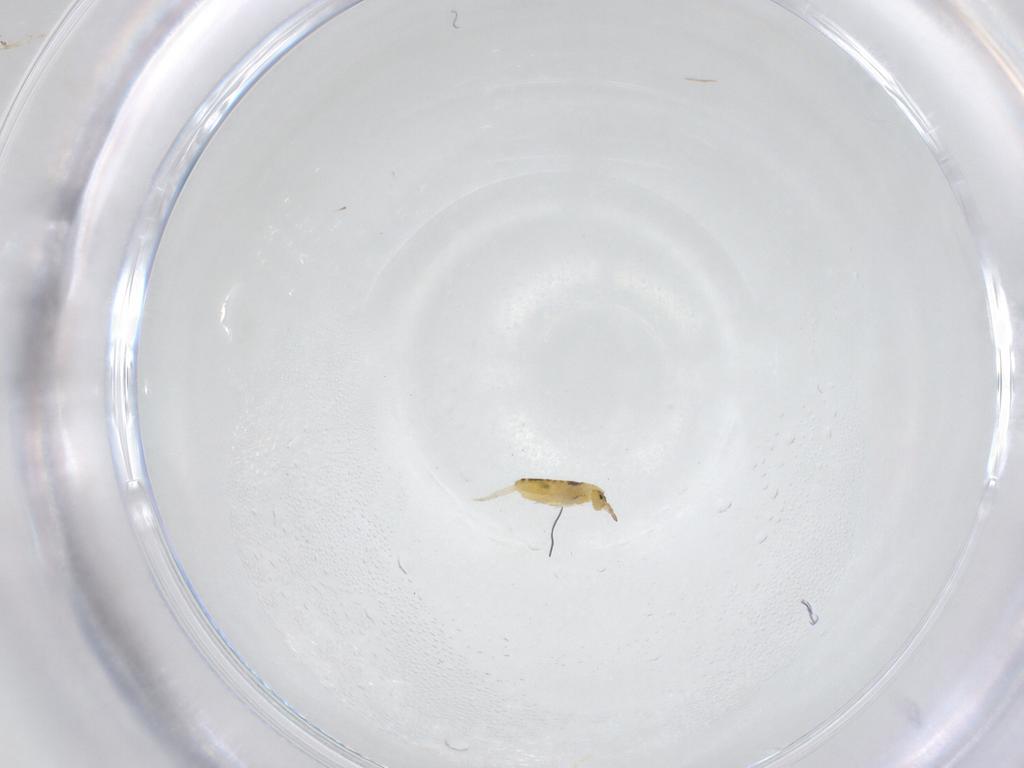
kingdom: Animalia
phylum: Arthropoda
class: Collembola
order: Entomobryomorpha
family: Entomobryidae
